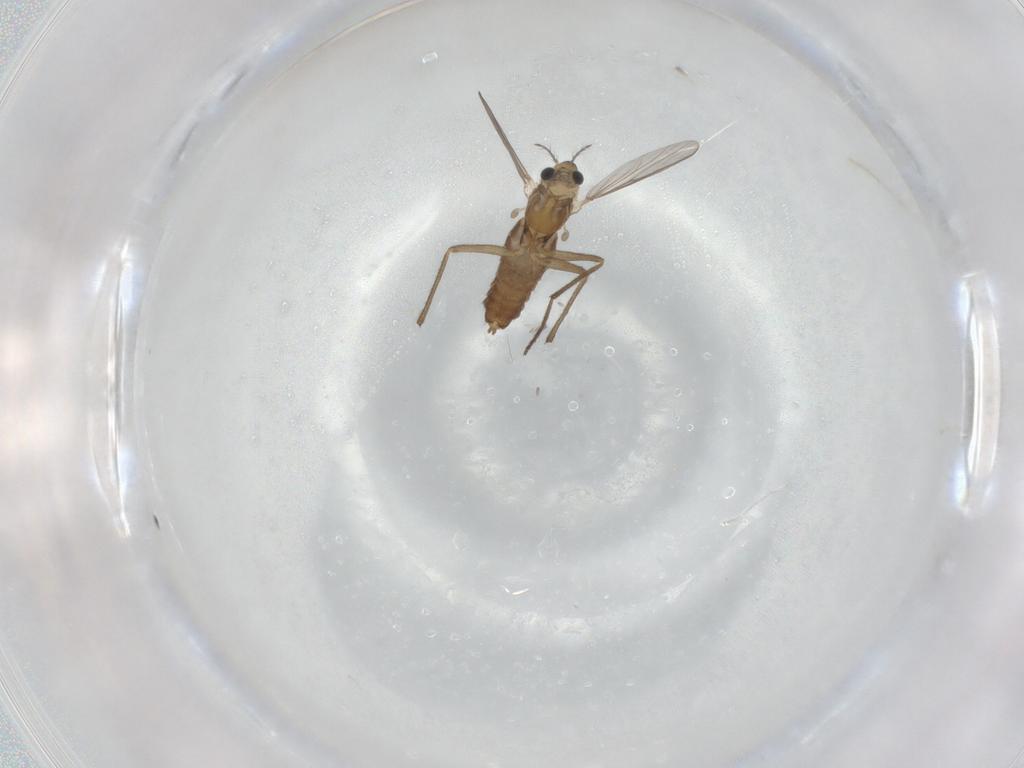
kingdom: Animalia
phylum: Arthropoda
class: Insecta
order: Diptera
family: Chironomidae
